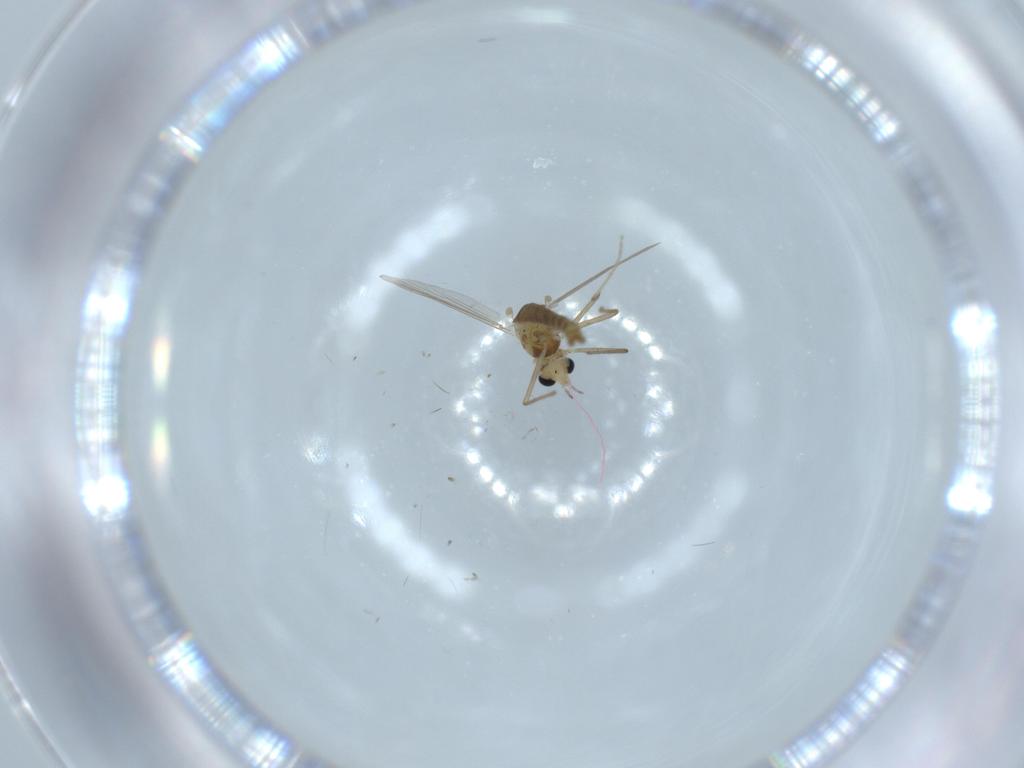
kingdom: Animalia
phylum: Arthropoda
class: Insecta
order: Diptera
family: Chironomidae
